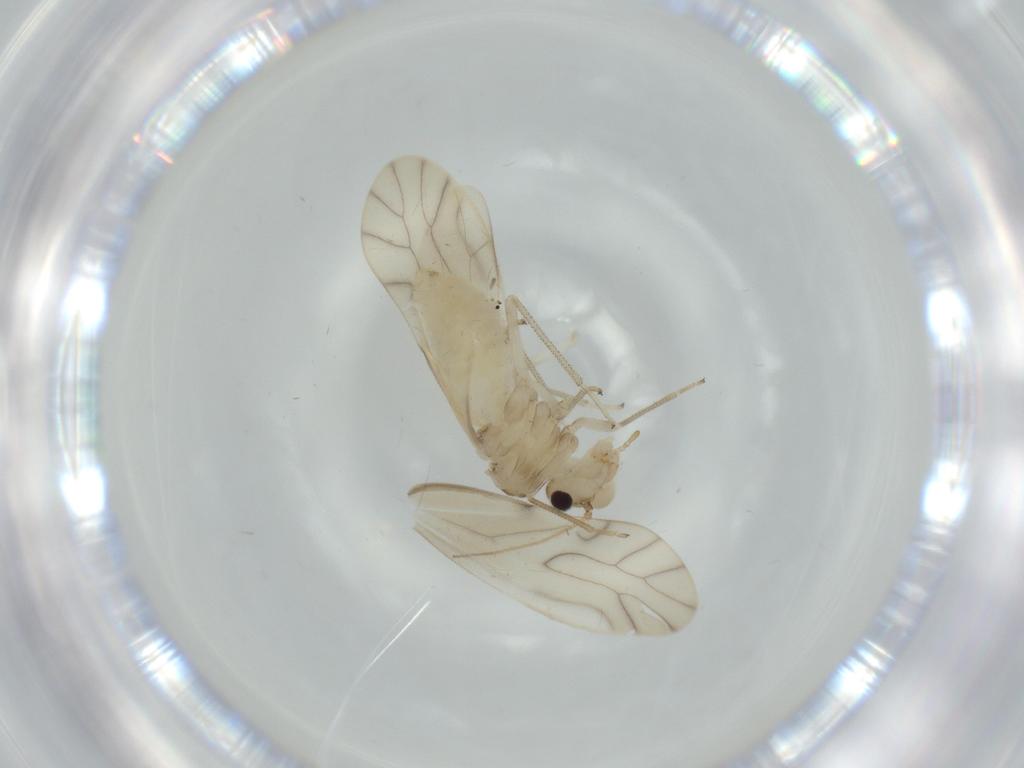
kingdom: Animalia
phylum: Arthropoda
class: Insecta
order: Psocodea
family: Caeciliusidae
